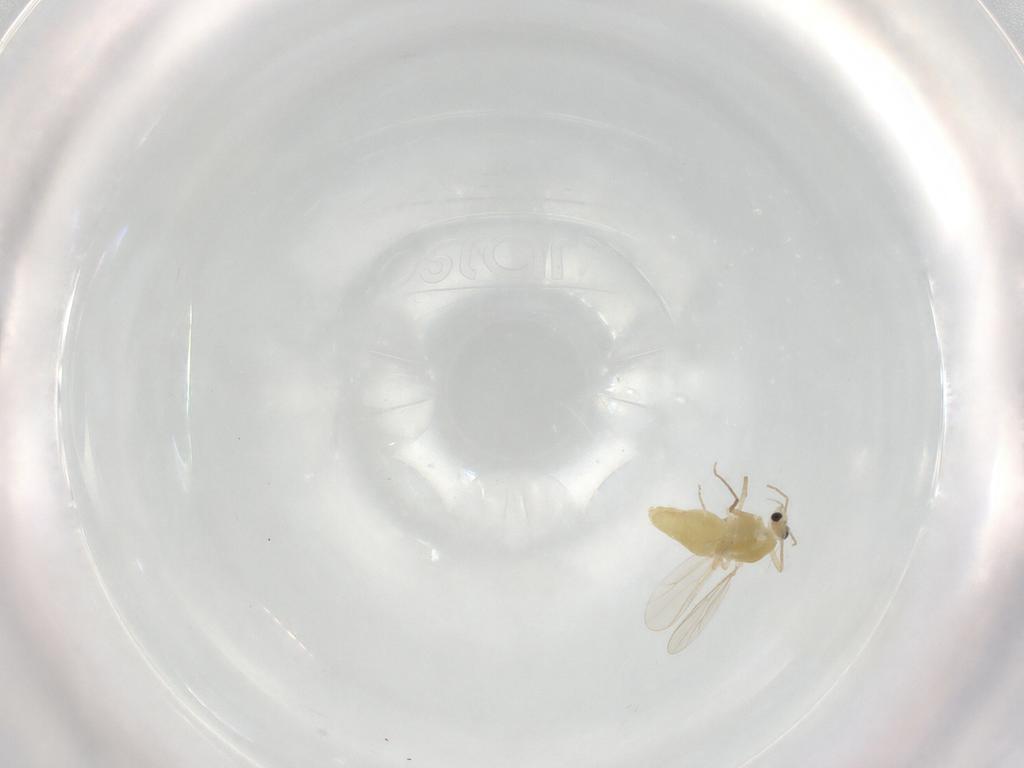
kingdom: Animalia
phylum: Arthropoda
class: Insecta
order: Diptera
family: Chironomidae
